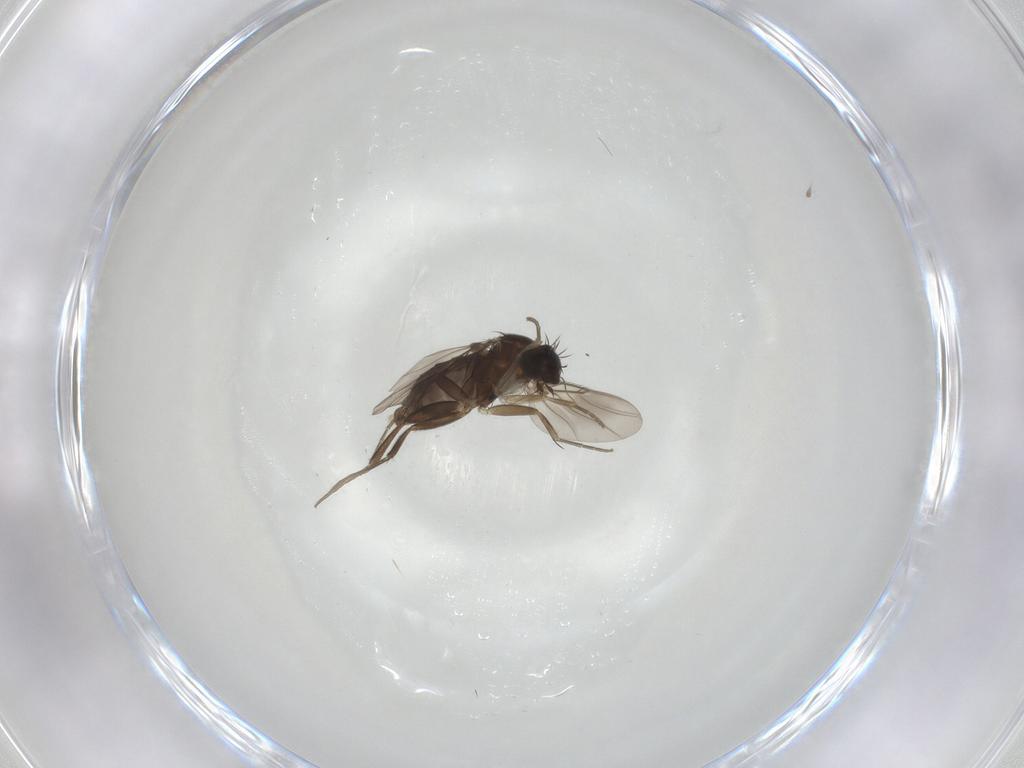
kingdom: Animalia
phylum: Arthropoda
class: Insecta
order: Diptera
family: Phoridae
